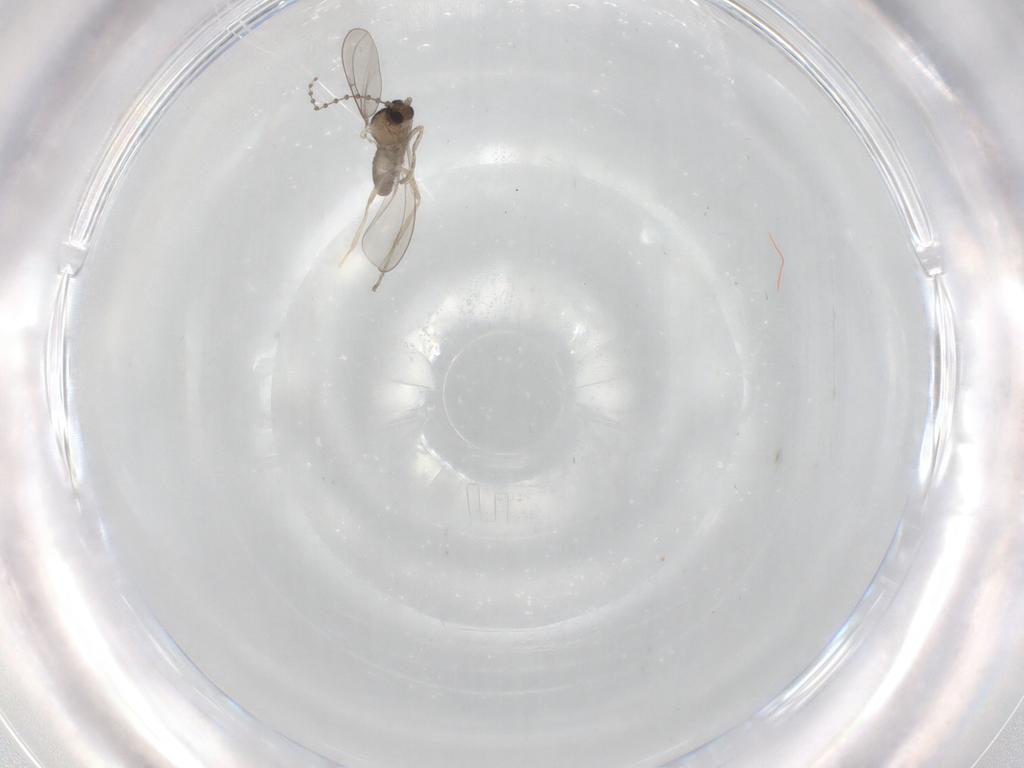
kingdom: Animalia
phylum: Arthropoda
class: Insecta
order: Diptera
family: Cecidomyiidae
